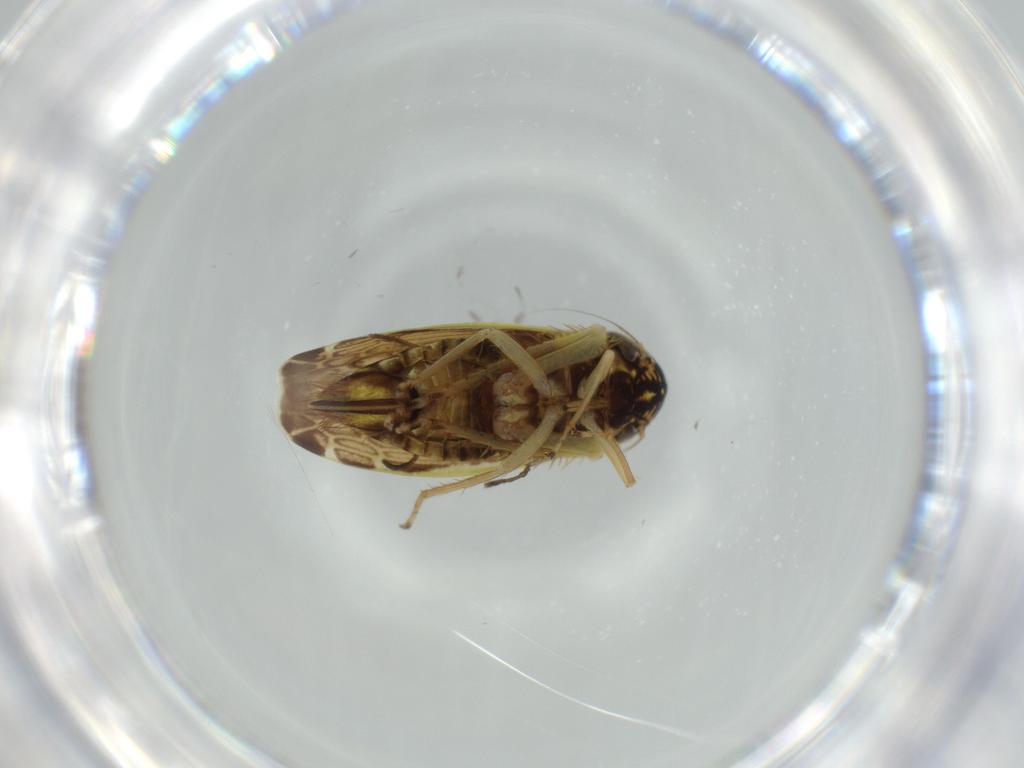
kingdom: Animalia
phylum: Arthropoda
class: Insecta
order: Hemiptera
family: Cicadellidae
